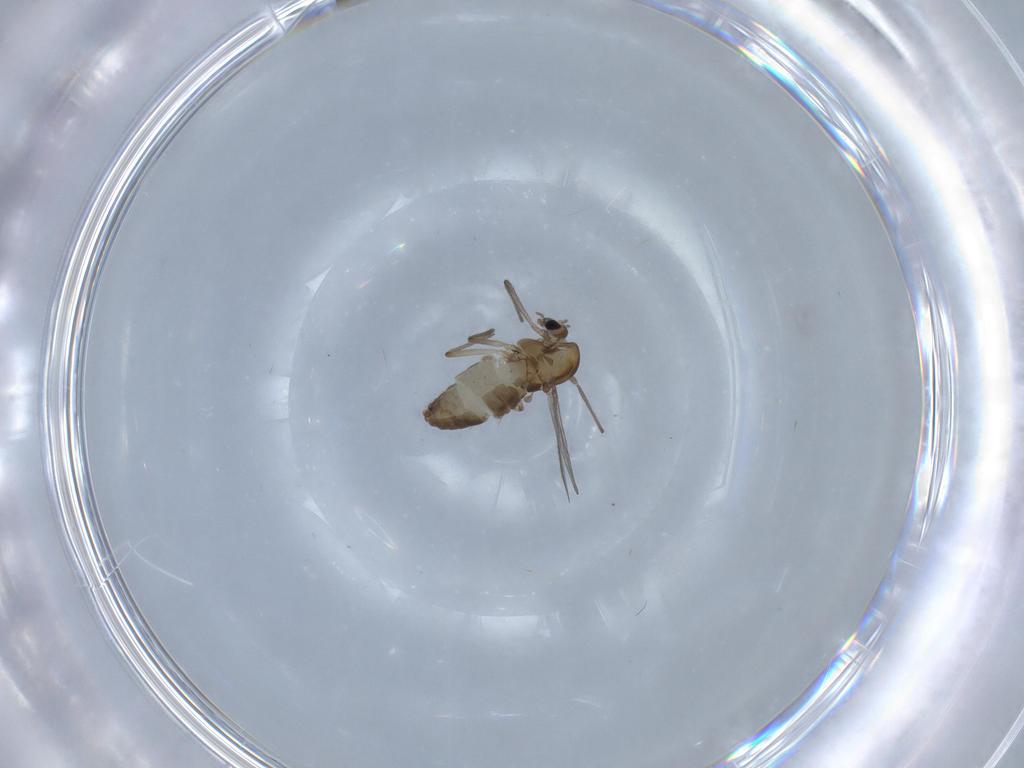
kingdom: Animalia
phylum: Arthropoda
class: Insecta
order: Diptera
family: Chironomidae
